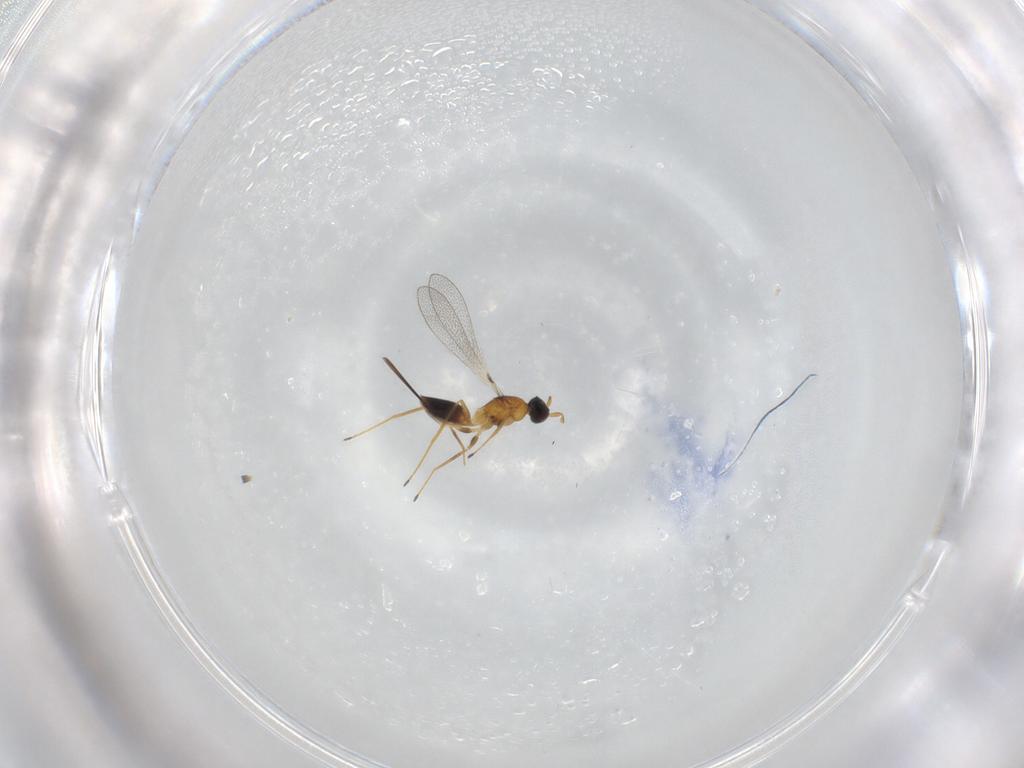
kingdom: Animalia
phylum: Arthropoda
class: Insecta
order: Hymenoptera
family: Mymaridae
